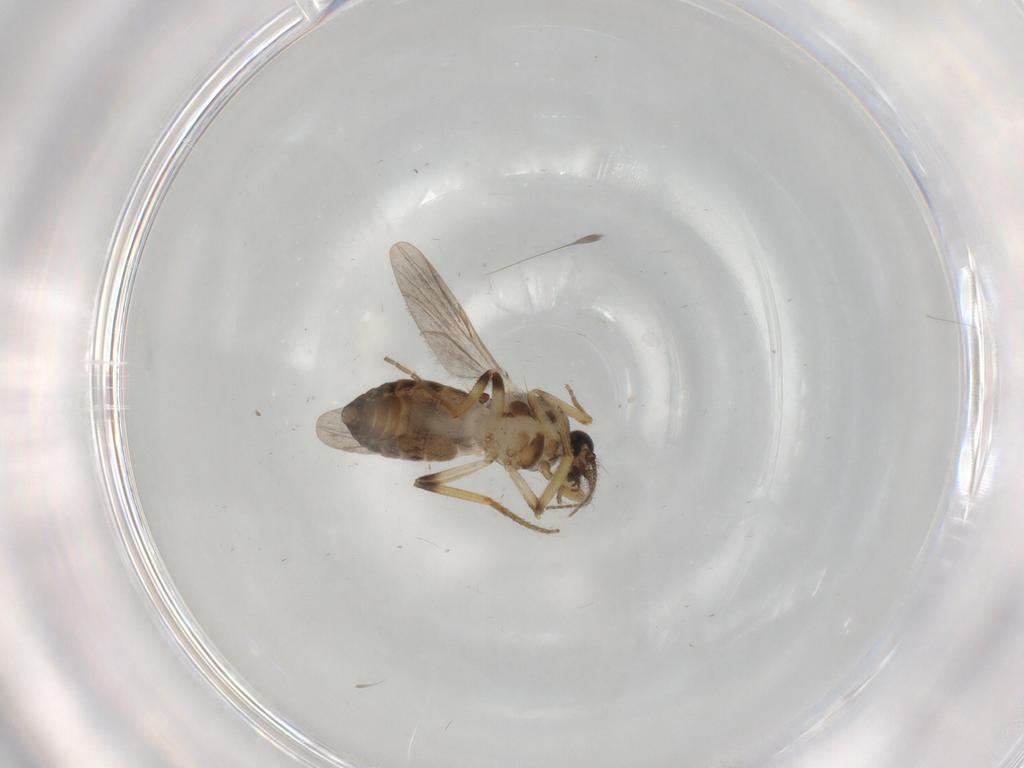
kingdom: Animalia
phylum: Arthropoda
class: Insecta
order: Diptera
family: Ceratopogonidae
